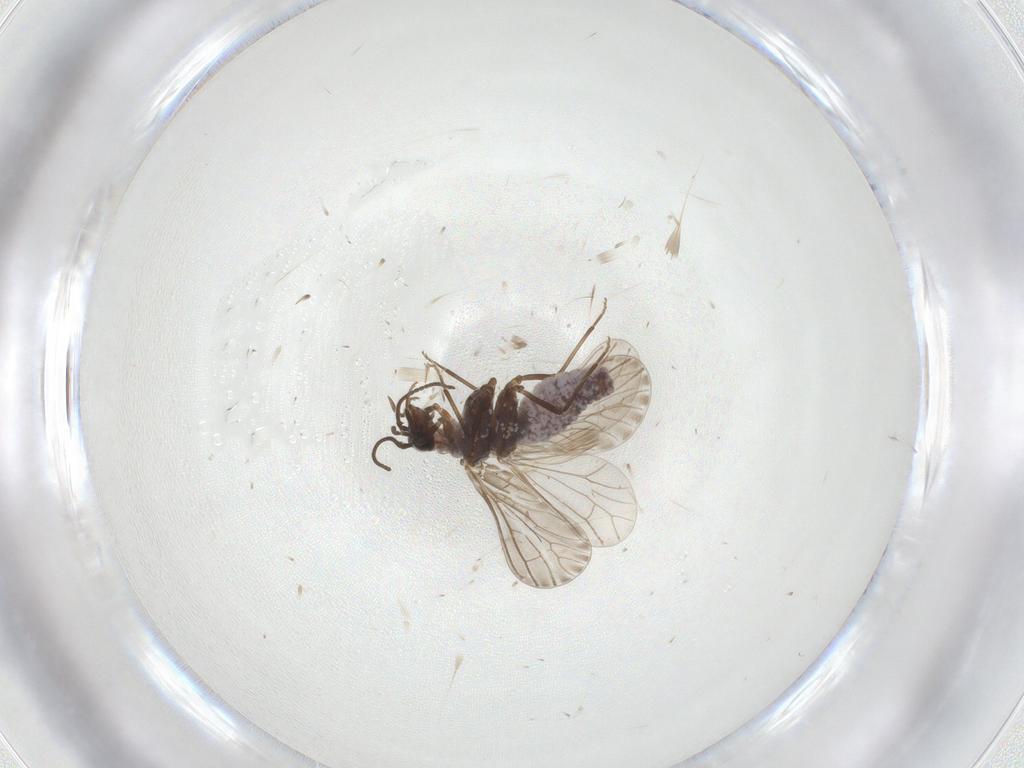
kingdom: Animalia
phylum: Arthropoda
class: Insecta
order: Neuroptera
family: Coniopterygidae
